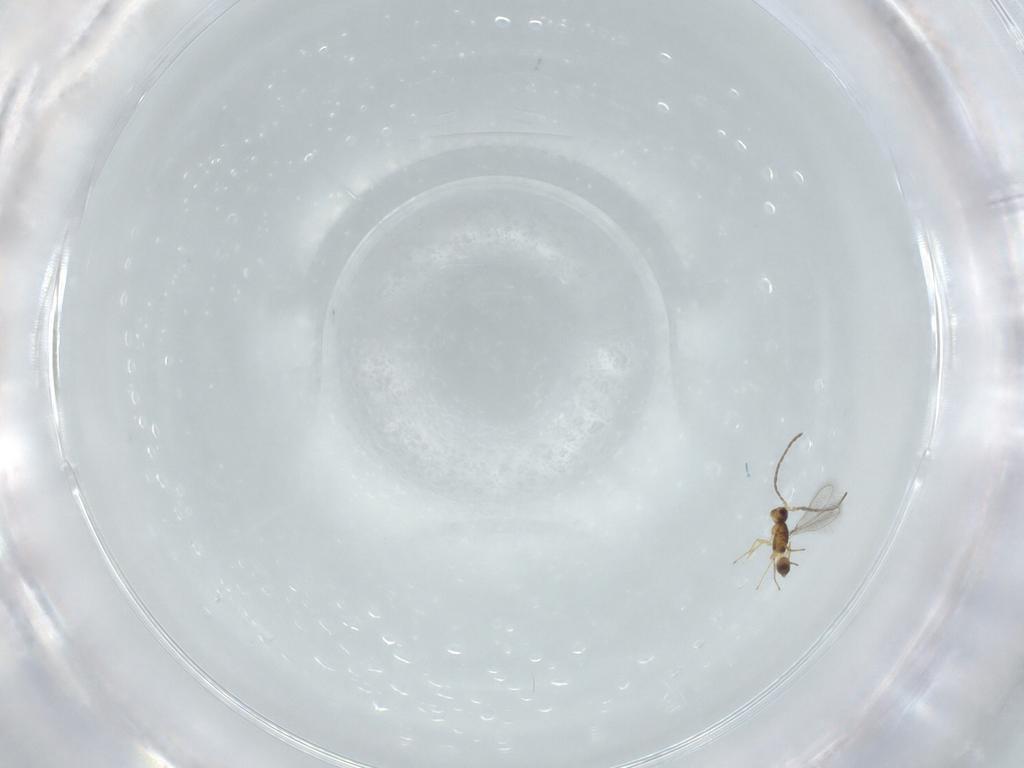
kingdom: Animalia
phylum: Arthropoda
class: Insecta
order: Hymenoptera
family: Mymaridae
